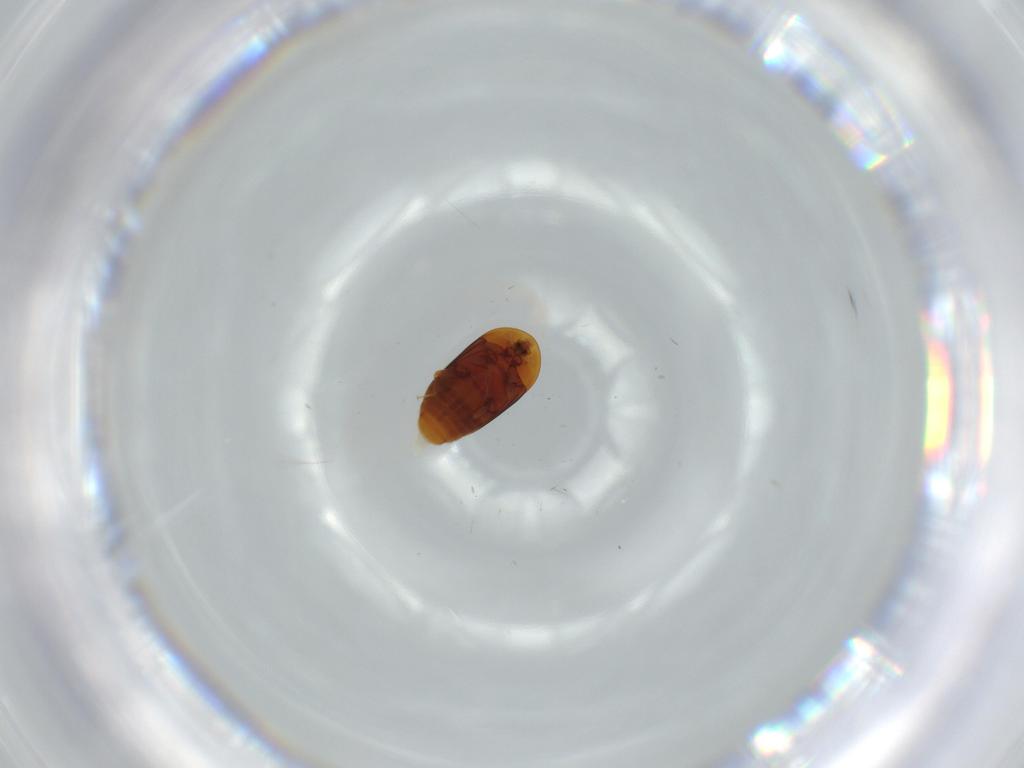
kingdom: Animalia
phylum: Arthropoda
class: Insecta
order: Coleoptera
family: Corylophidae
